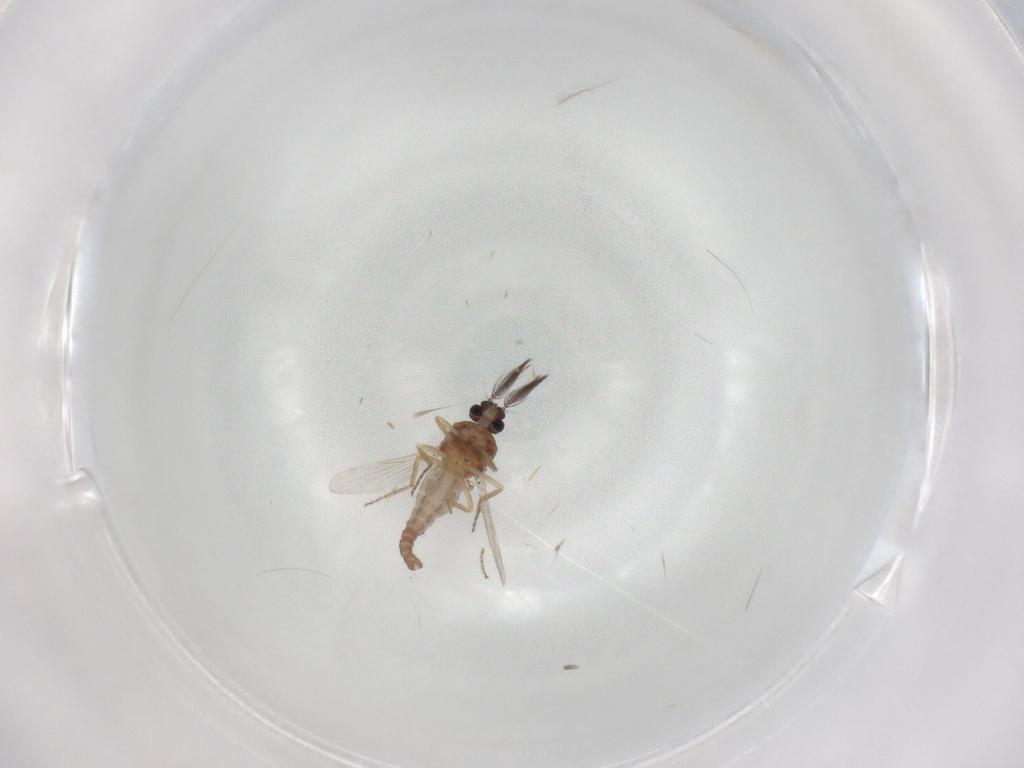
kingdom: Animalia
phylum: Arthropoda
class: Insecta
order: Diptera
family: Ceratopogonidae
